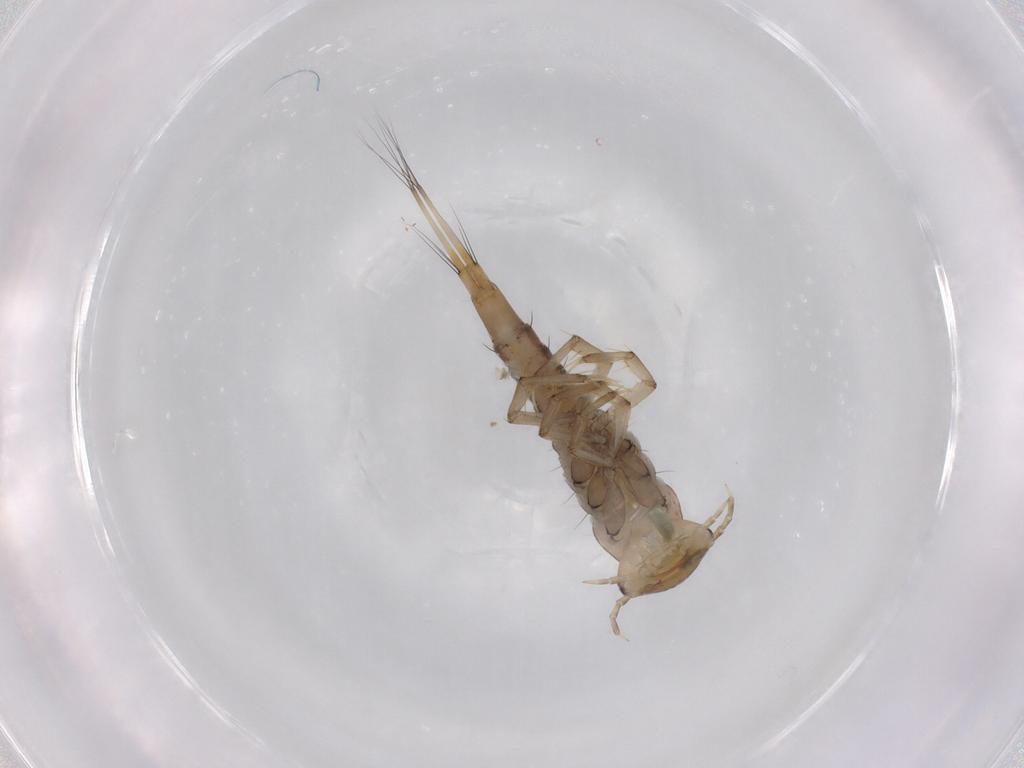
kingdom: Animalia
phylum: Arthropoda
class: Insecta
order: Coleoptera
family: Dytiscidae
